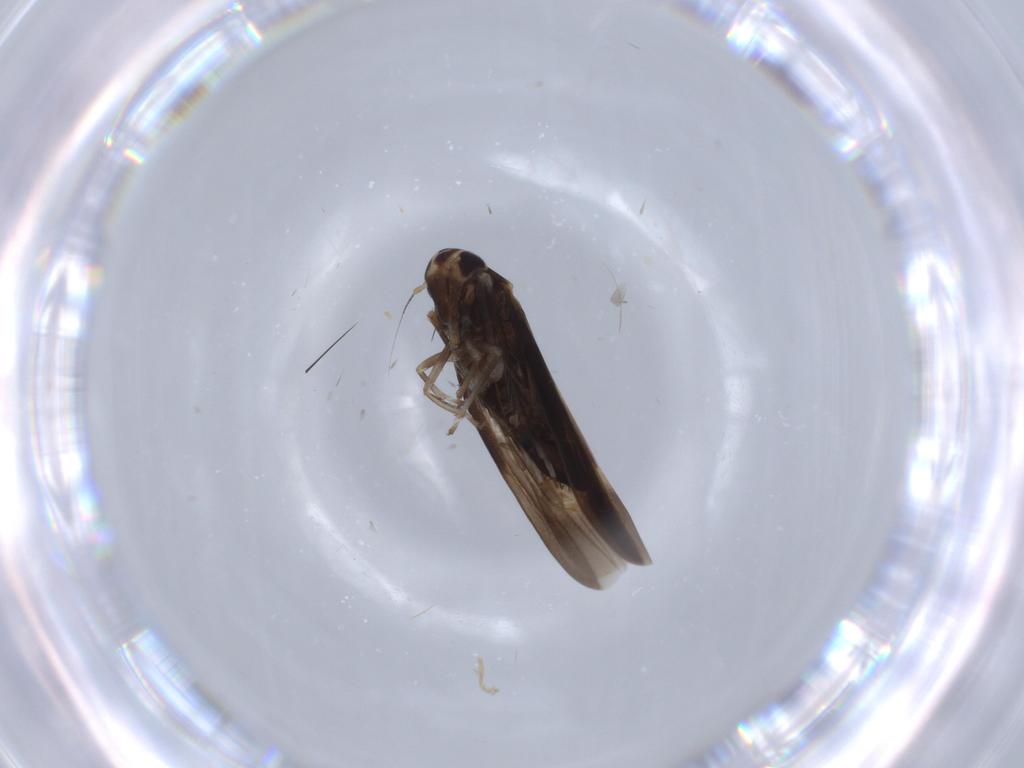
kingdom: Animalia
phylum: Arthropoda
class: Insecta
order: Hemiptera
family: Cicadellidae
